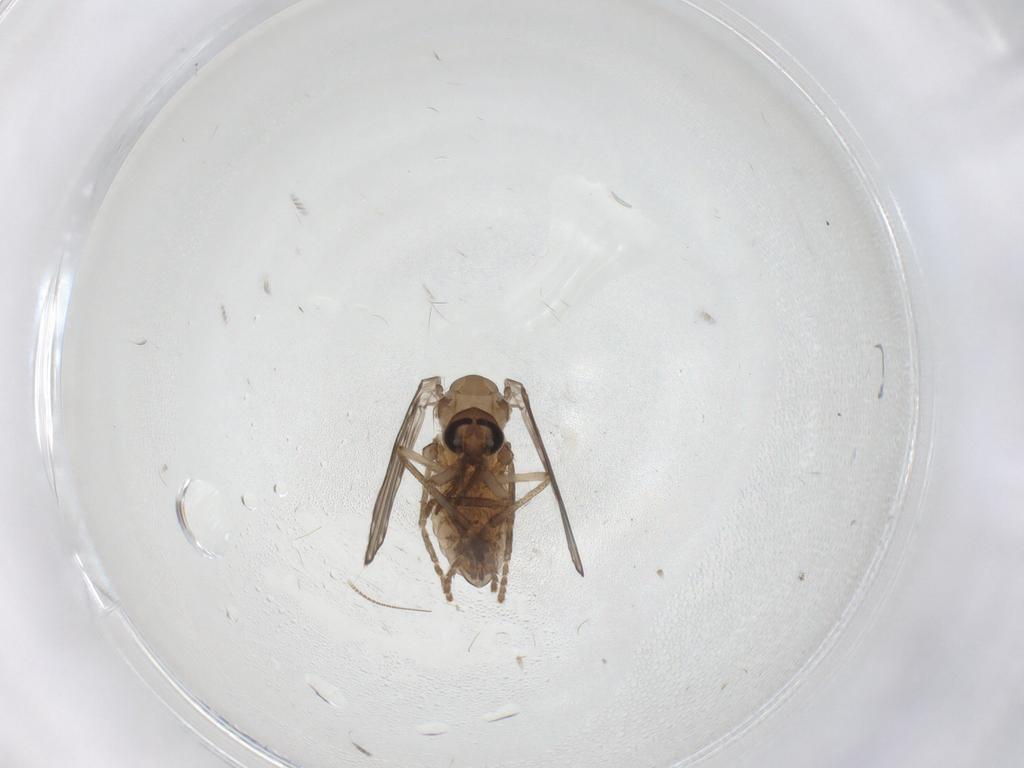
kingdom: Animalia
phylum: Arthropoda
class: Insecta
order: Diptera
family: Psychodidae
